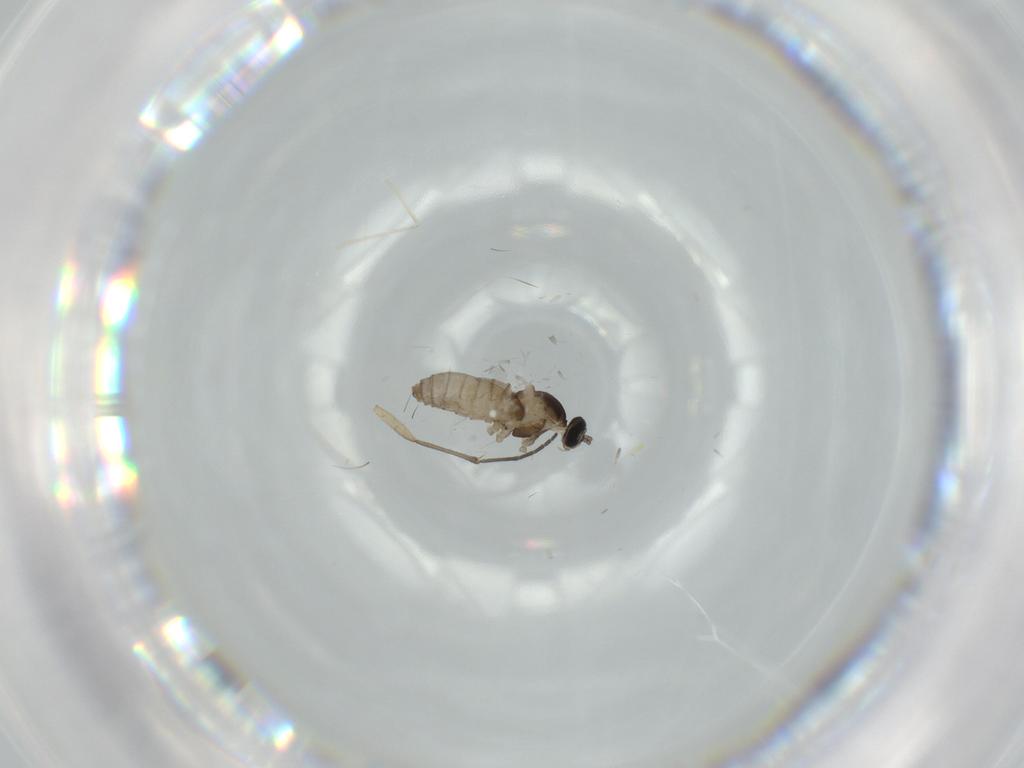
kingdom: Animalia
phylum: Arthropoda
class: Insecta
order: Diptera
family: Cecidomyiidae
